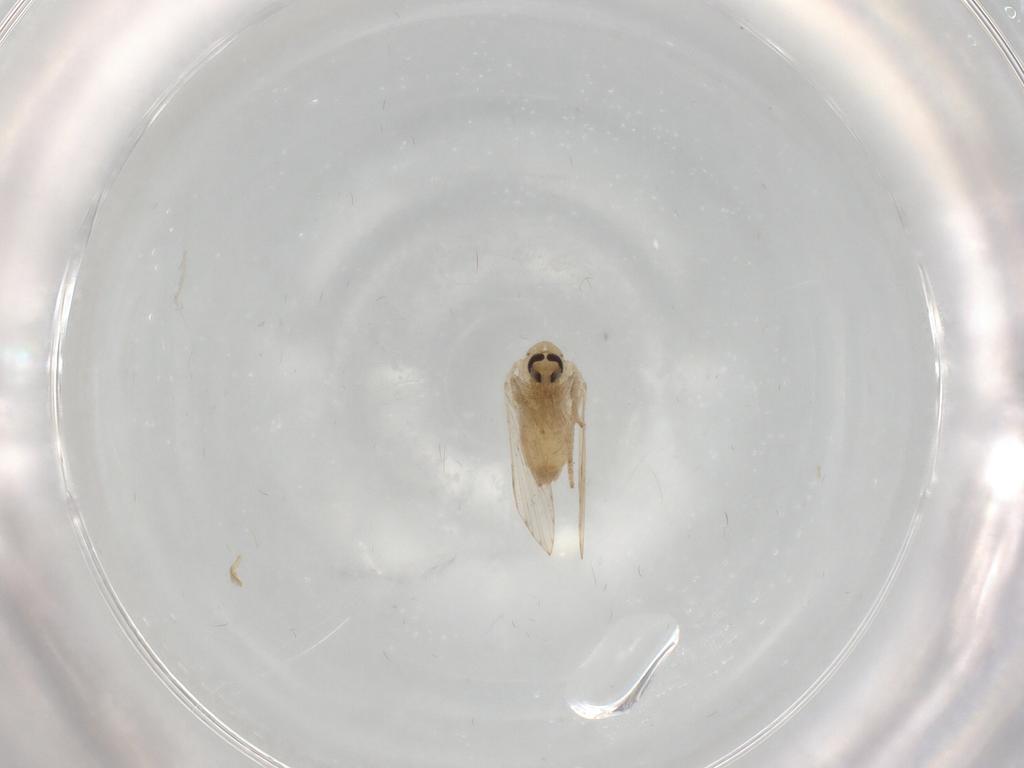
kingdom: Animalia
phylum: Arthropoda
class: Insecta
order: Diptera
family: Psychodidae
